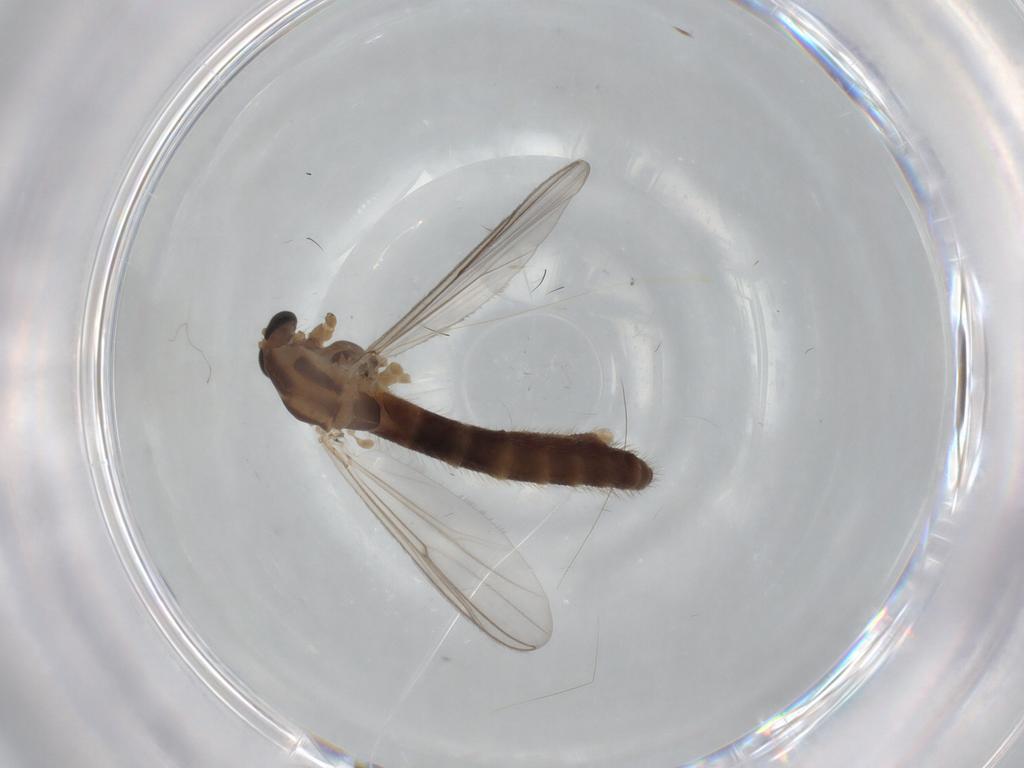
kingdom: Animalia
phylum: Arthropoda
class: Insecta
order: Diptera
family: Chironomidae
